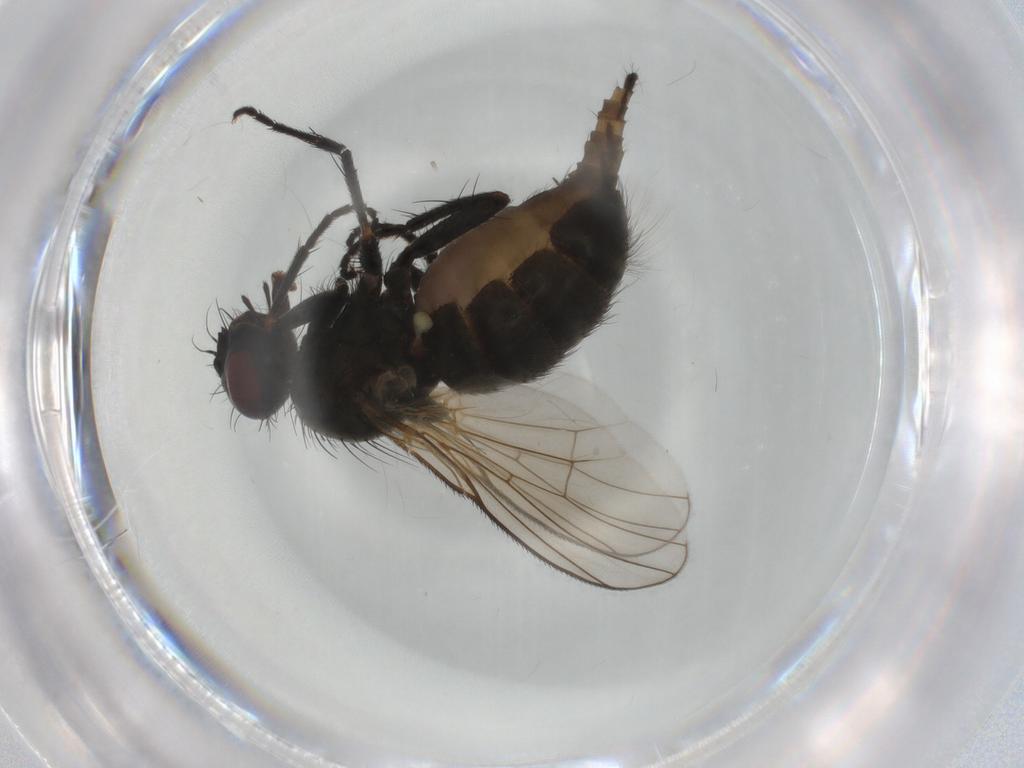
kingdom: Animalia
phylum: Arthropoda
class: Insecta
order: Diptera
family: Muscidae
